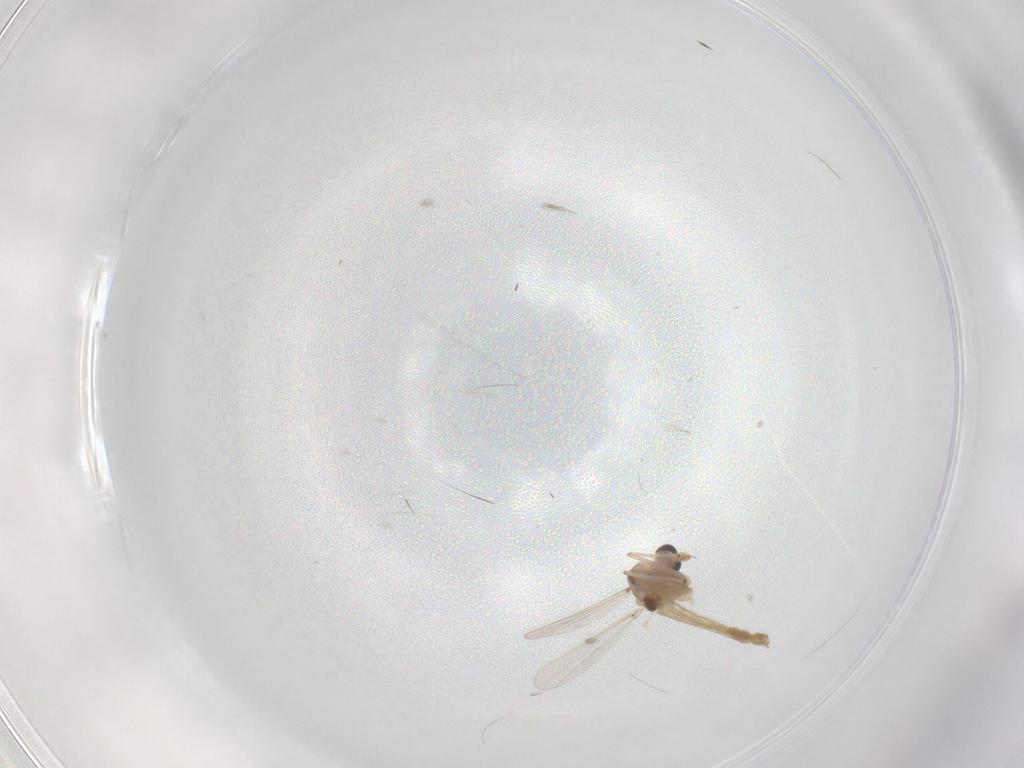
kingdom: Animalia
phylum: Arthropoda
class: Insecta
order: Diptera
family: Chironomidae
